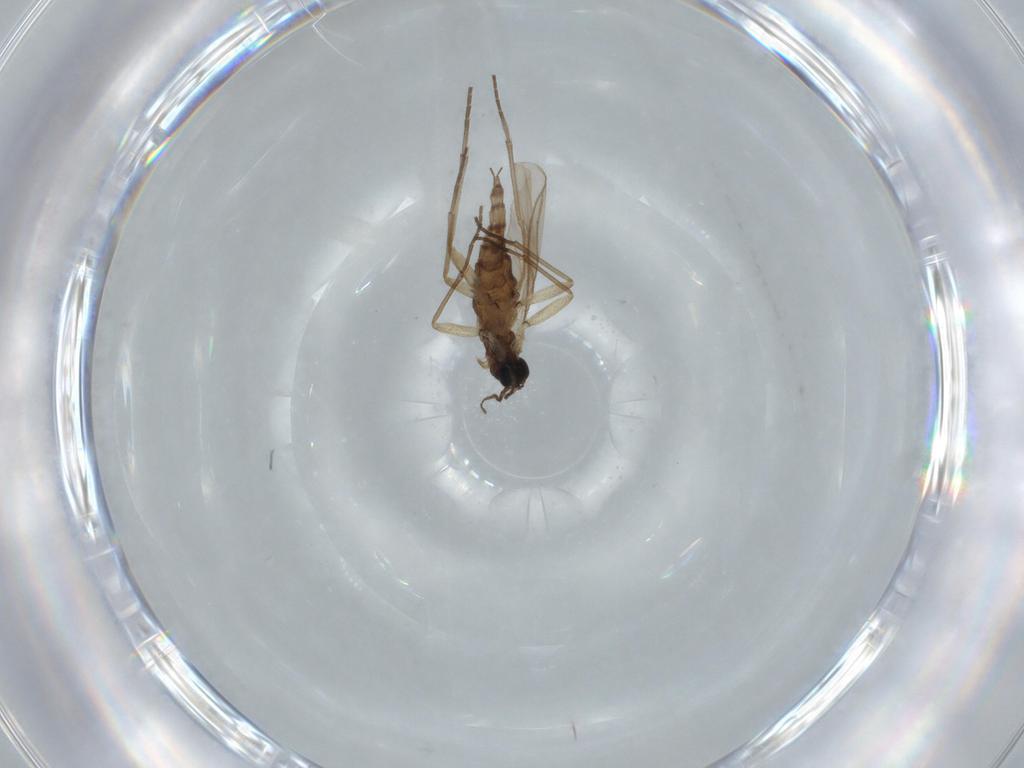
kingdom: Animalia
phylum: Arthropoda
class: Insecta
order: Diptera
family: Sciaridae
